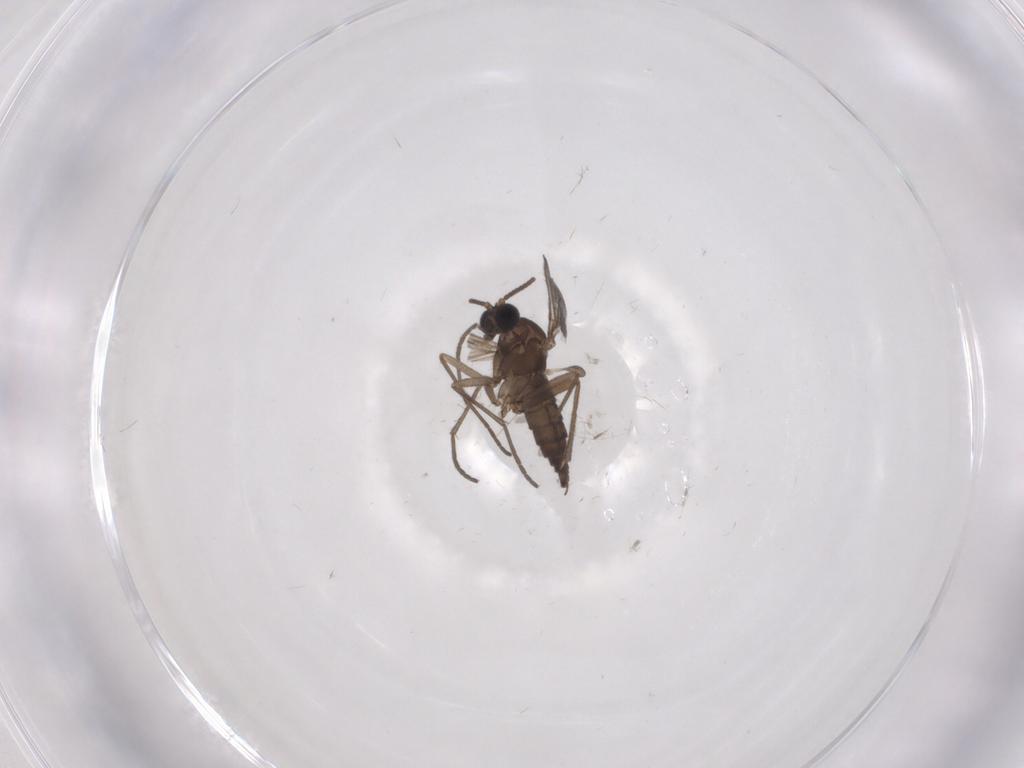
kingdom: Animalia
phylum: Arthropoda
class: Insecta
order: Diptera
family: Sciaridae
